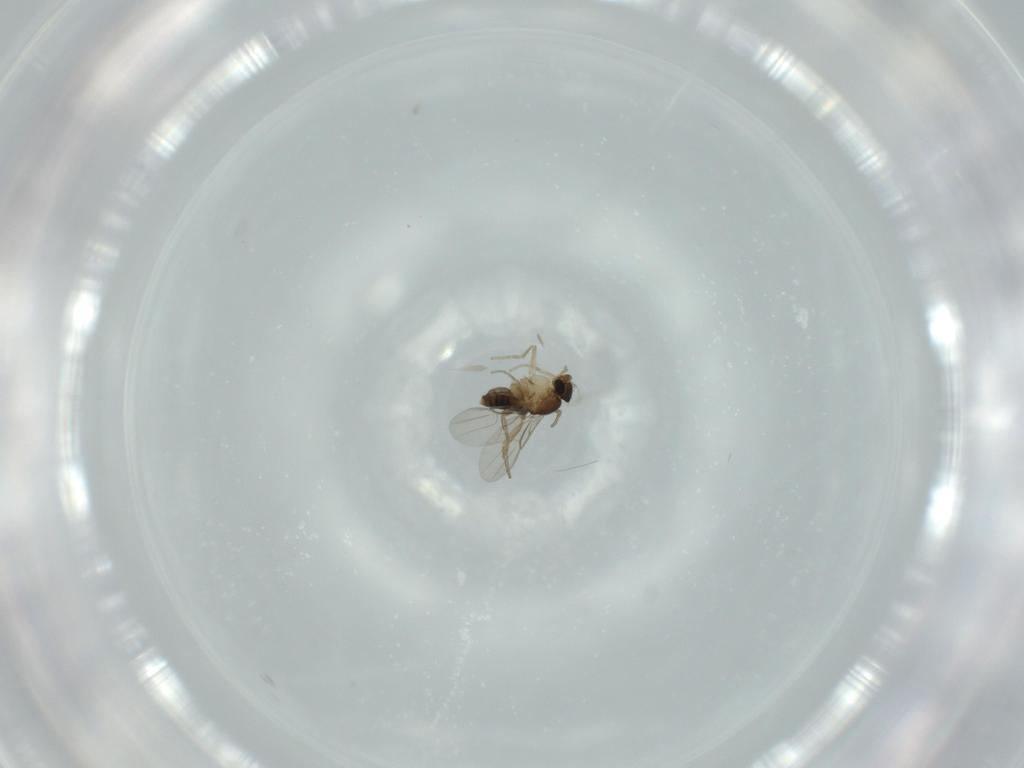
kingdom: Animalia
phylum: Arthropoda
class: Insecta
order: Diptera
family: Phoridae
